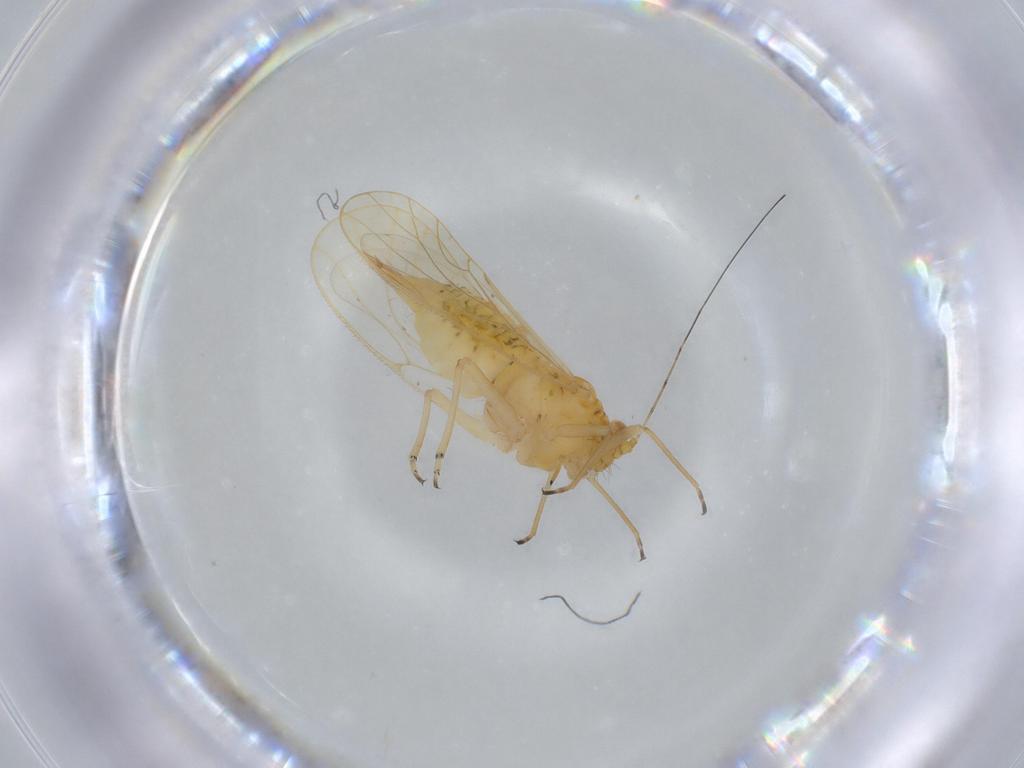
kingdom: Animalia
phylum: Arthropoda
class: Insecta
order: Hemiptera
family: Psyllidae
